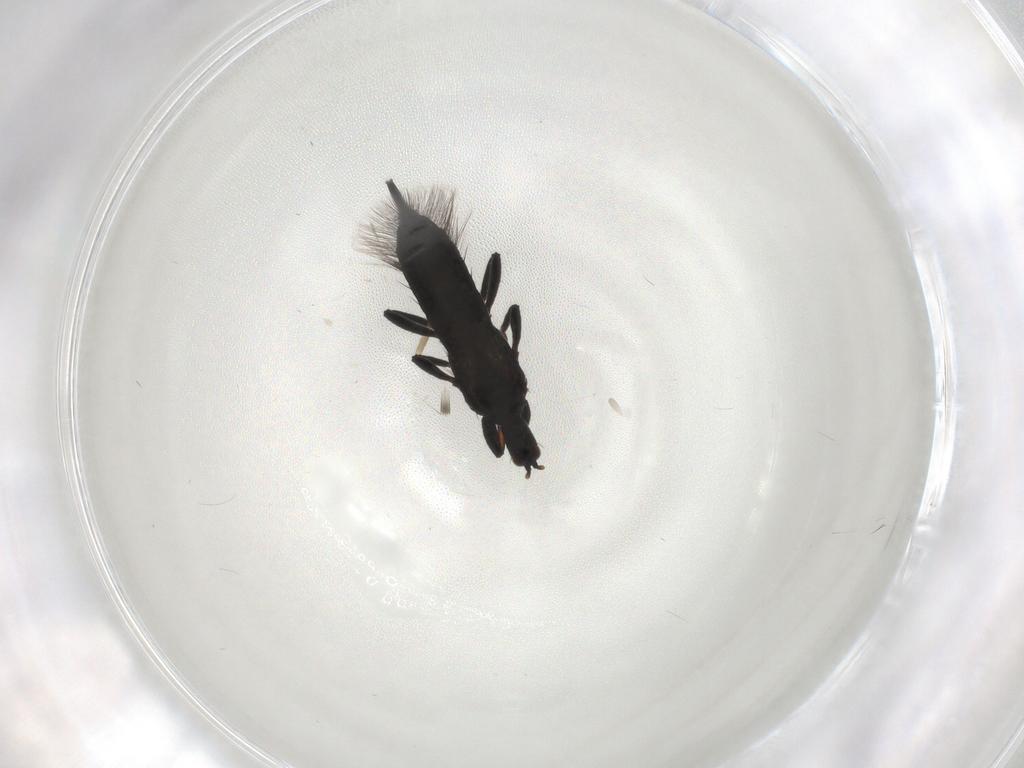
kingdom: Animalia
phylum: Arthropoda
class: Insecta
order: Thysanoptera
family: Phlaeothripidae
